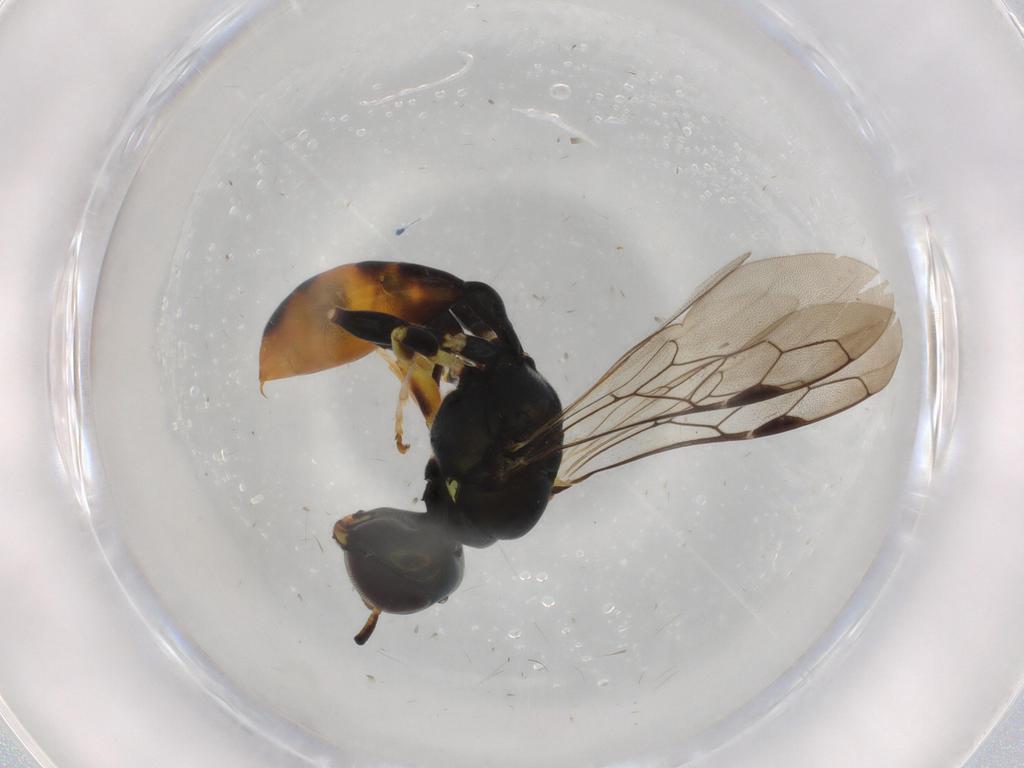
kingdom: Animalia
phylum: Arthropoda
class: Insecta
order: Hymenoptera
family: Crabronidae
